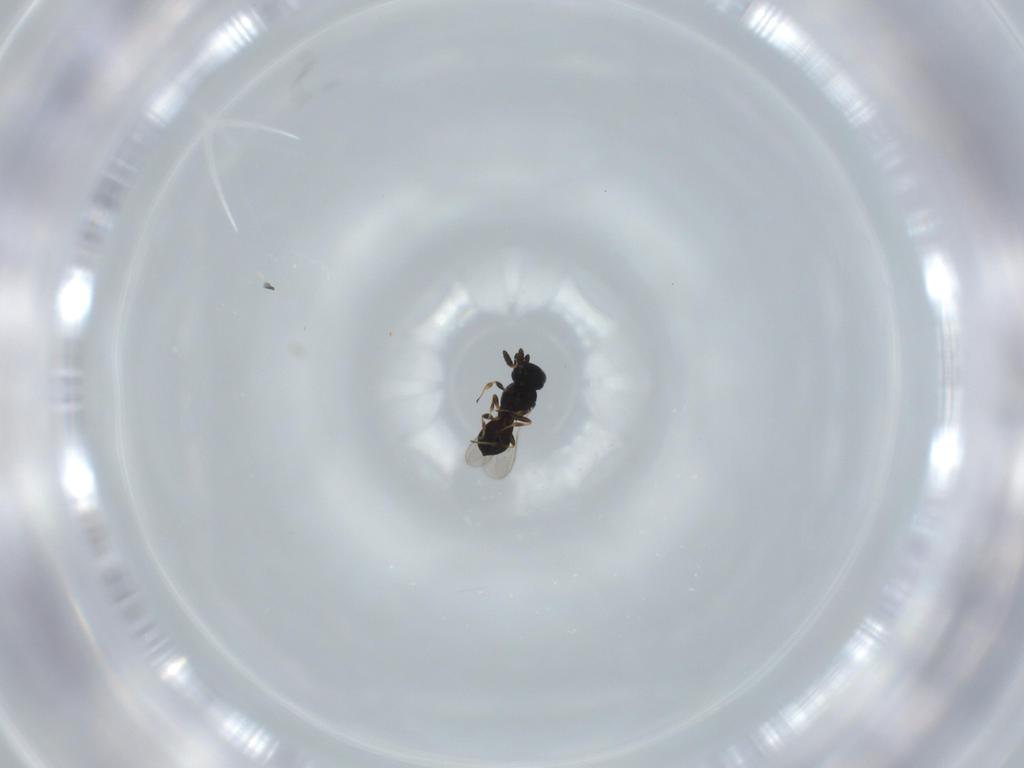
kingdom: Animalia
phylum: Arthropoda
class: Insecta
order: Hymenoptera
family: Scelionidae
